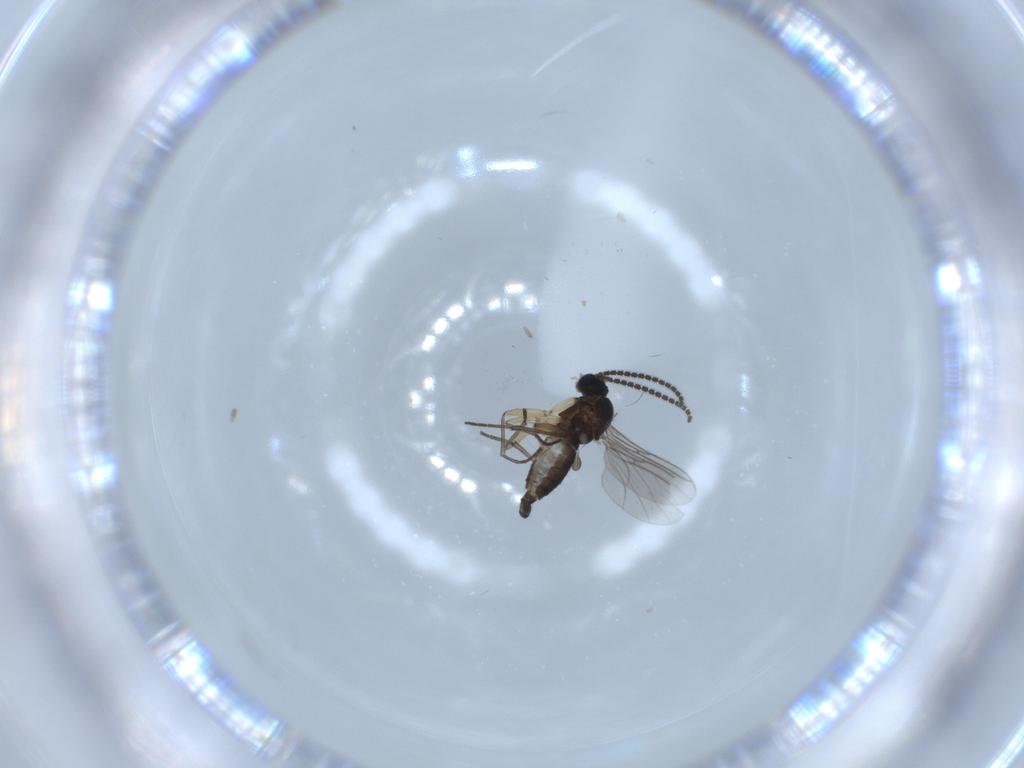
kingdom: Animalia
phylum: Arthropoda
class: Insecta
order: Diptera
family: Sciaridae
